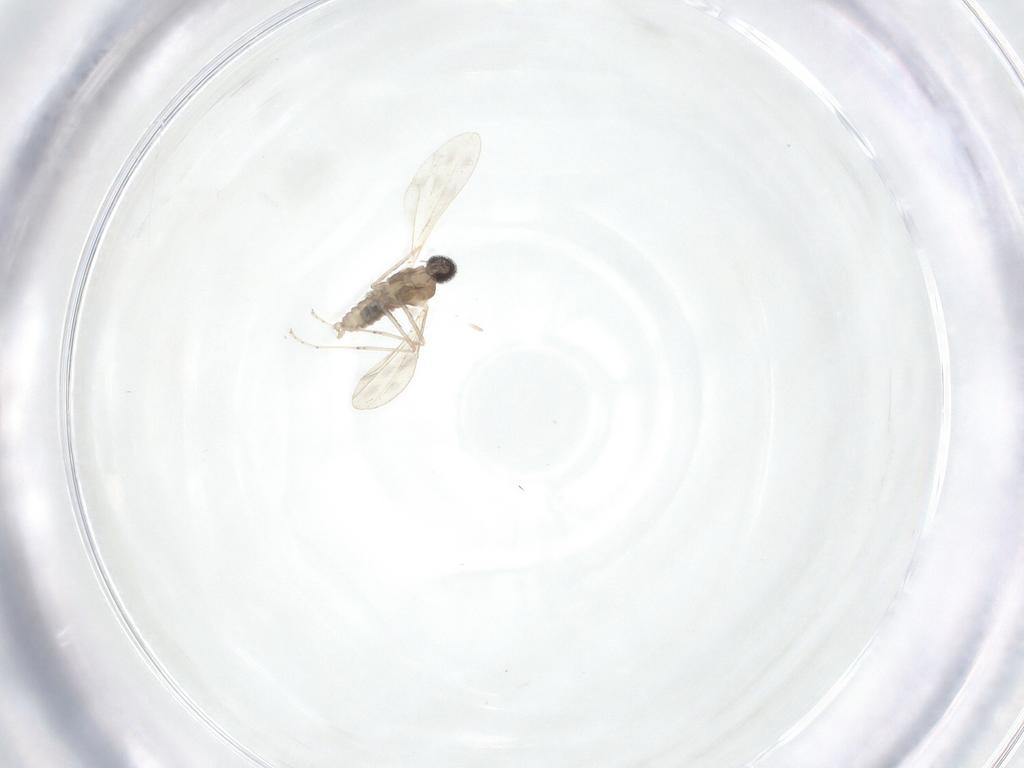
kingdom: Animalia
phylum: Arthropoda
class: Insecta
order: Diptera
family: Cecidomyiidae
